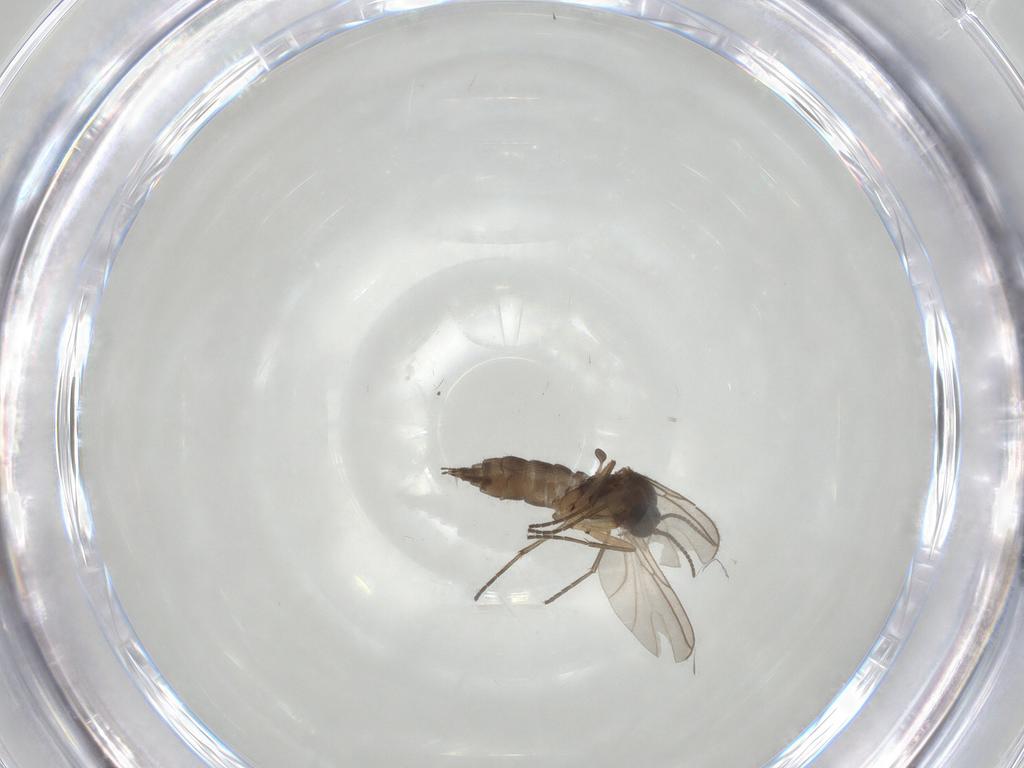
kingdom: Animalia
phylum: Arthropoda
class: Insecta
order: Diptera
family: Sciaridae
